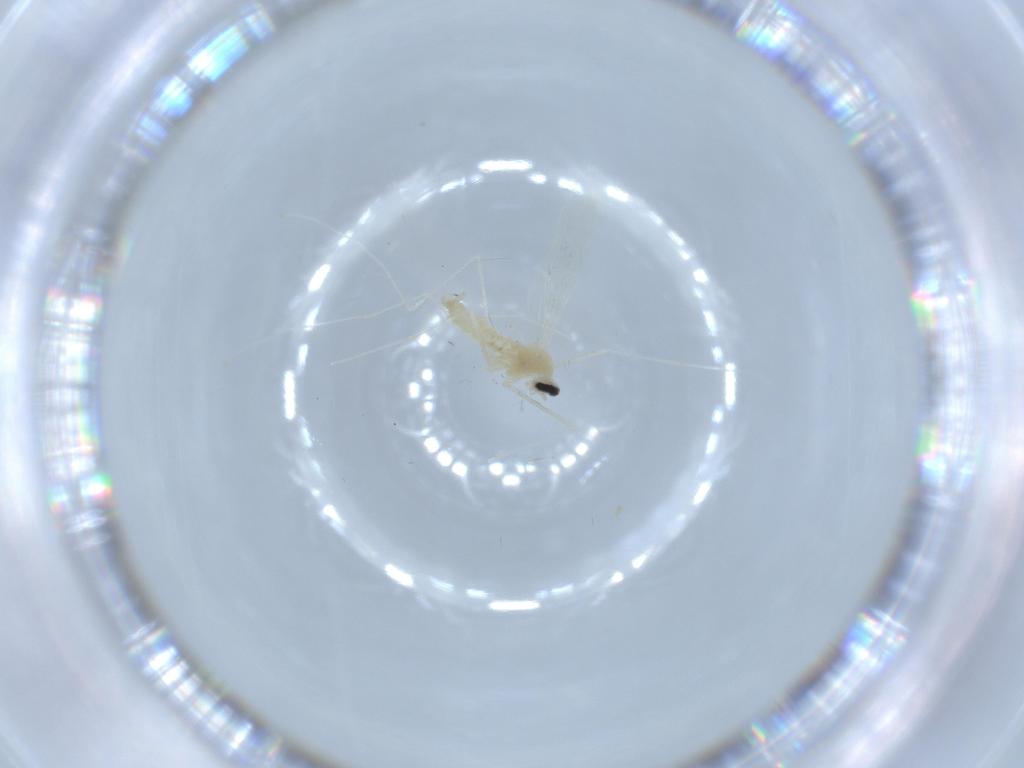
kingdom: Animalia
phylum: Arthropoda
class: Insecta
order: Diptera
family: Cecidomyiidae
